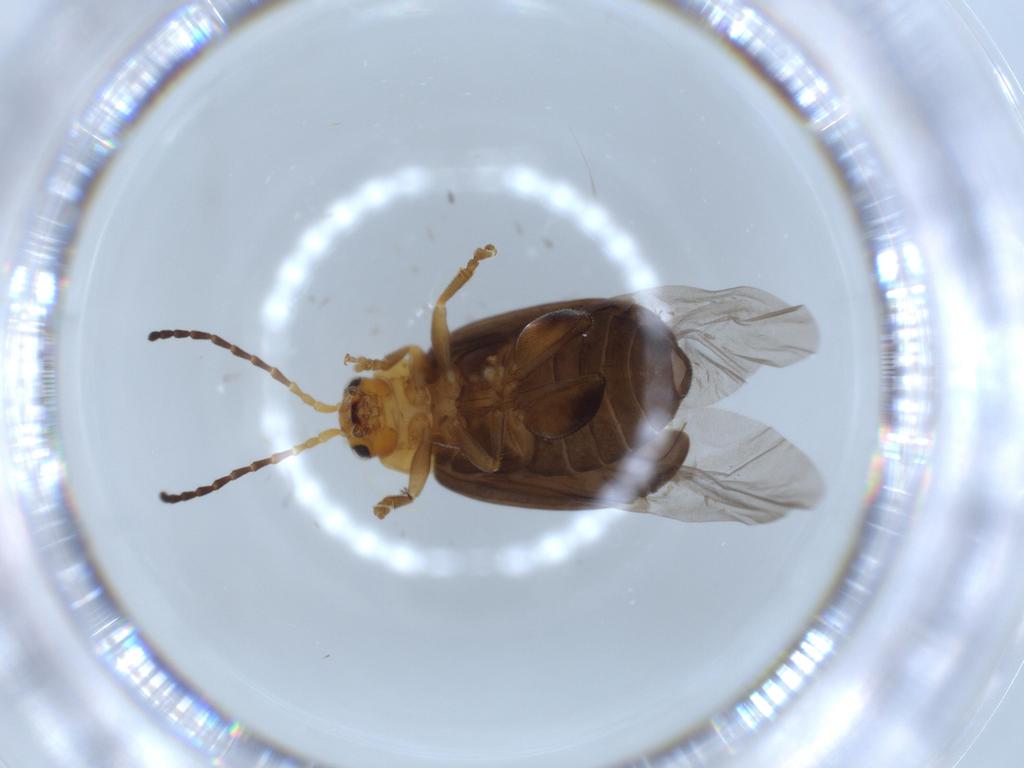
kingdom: Animalia
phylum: Arthropoda
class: Insecta
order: Coleoptera
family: Chrysomelidae
